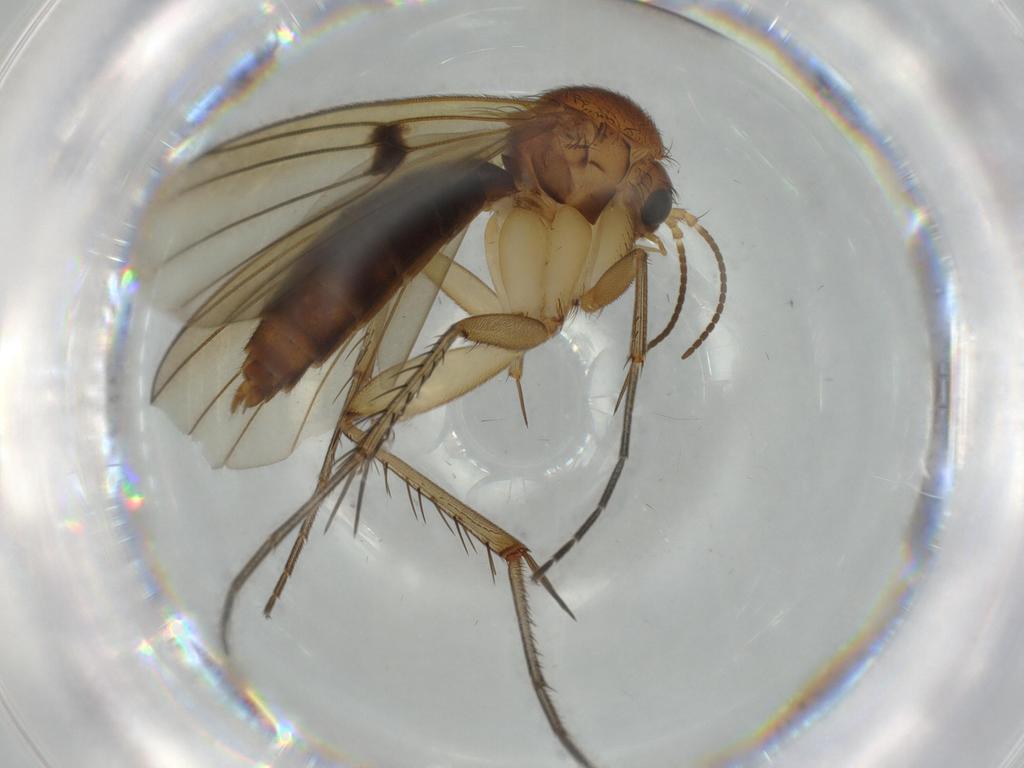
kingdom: Animalia
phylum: Arthropoda
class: Insecta
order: Diptera
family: Phoridae
